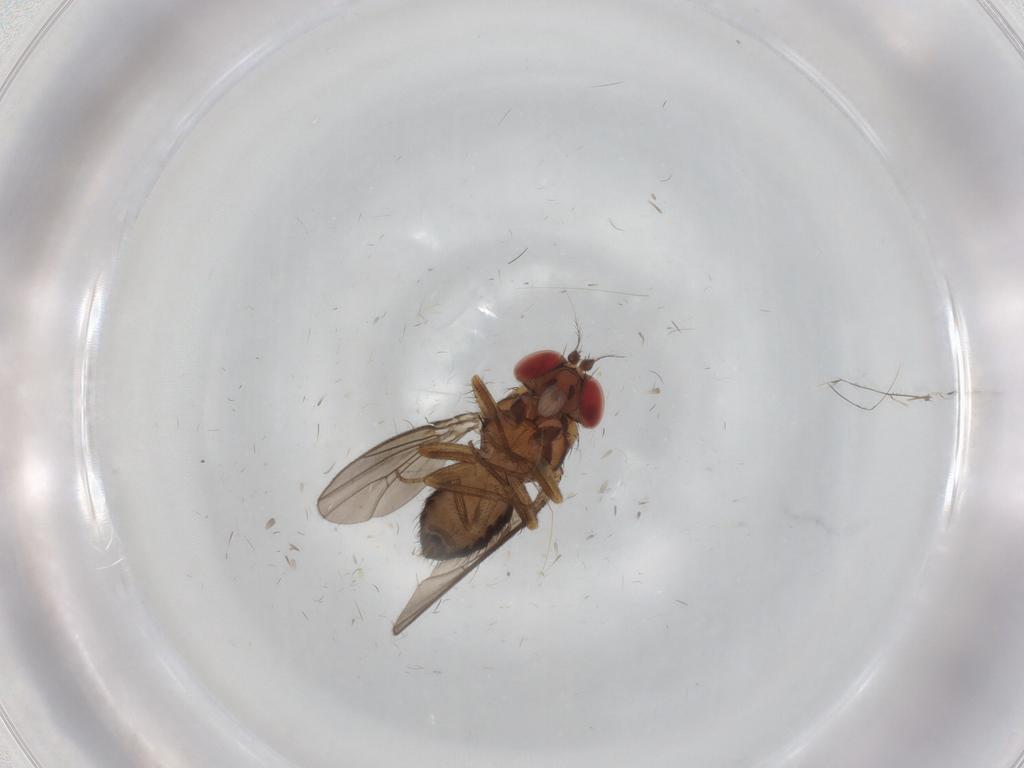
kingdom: Animalia
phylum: Arthropoda
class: Insecta
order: Diptera
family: Drosophilidae
